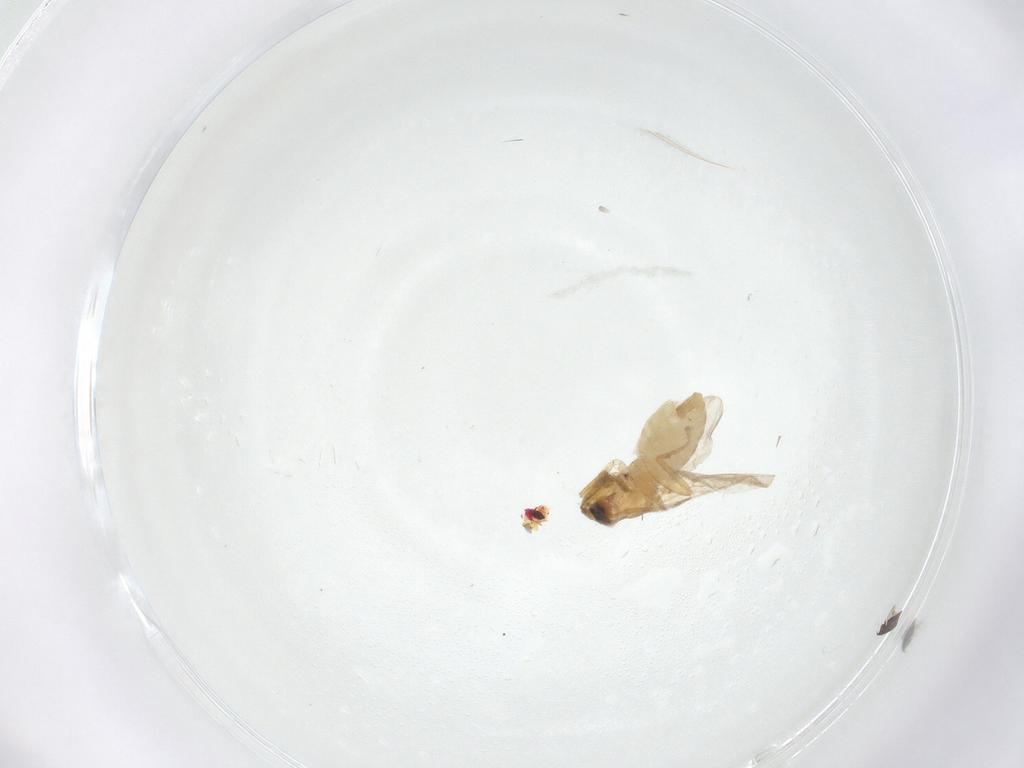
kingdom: Animalia
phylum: Arthropoda
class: Insecta
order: Diptera
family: Psychodidae
